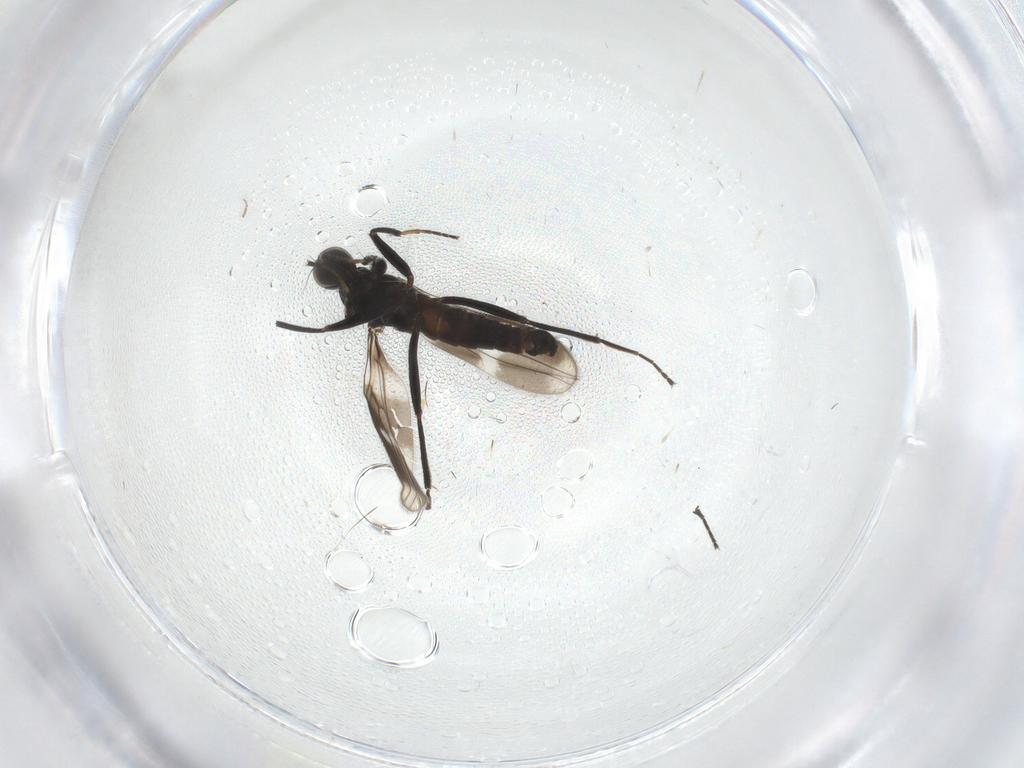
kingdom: Animalia
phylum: Arthropoda
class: Insecta
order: Diptera
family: Hybotidae
